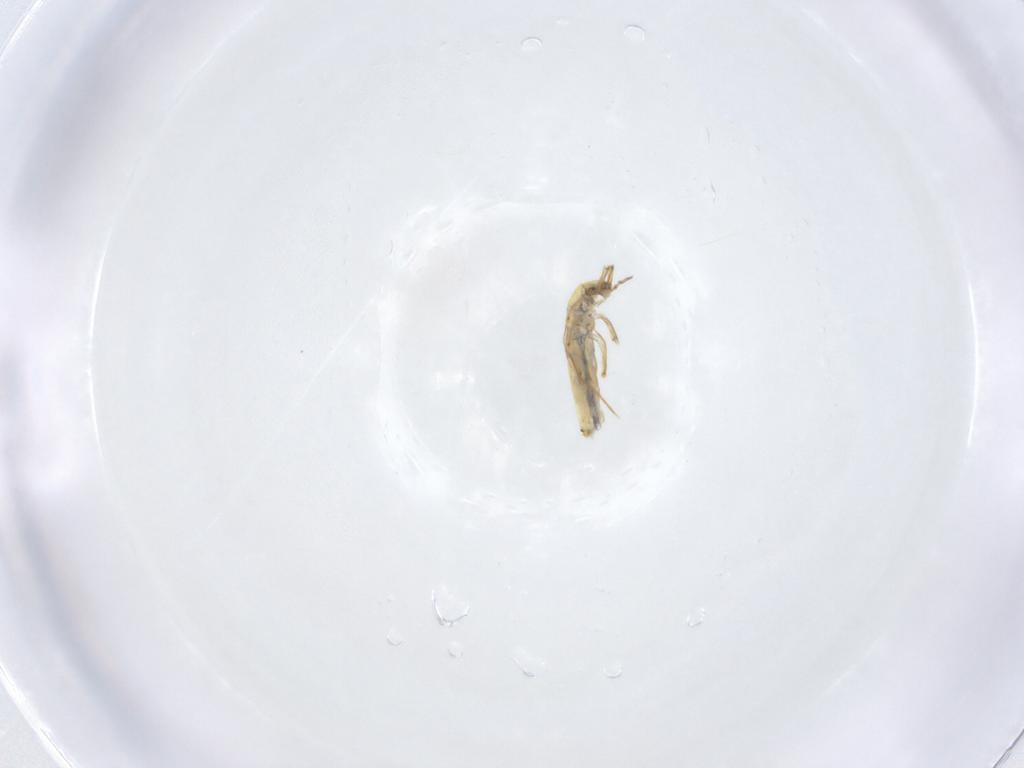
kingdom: Animalia
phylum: Arthropoda
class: Collembola
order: Entomobryomorpha
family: Entomobryidae
